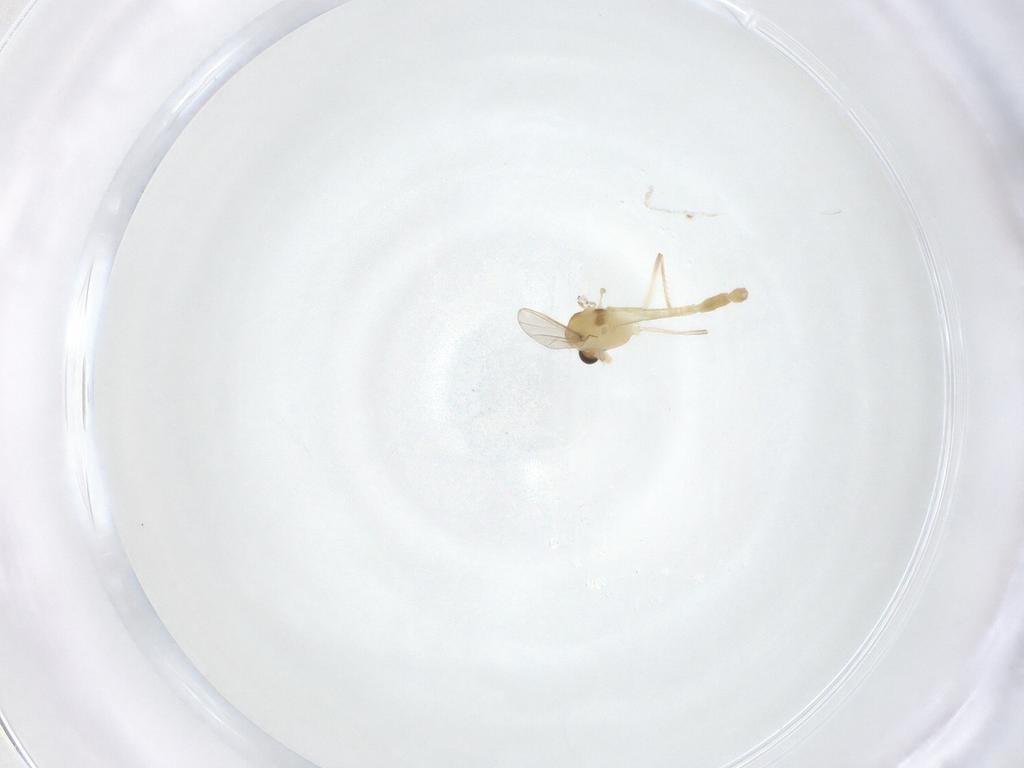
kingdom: Animalia
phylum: Arthropoda
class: Insecta
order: Diptera
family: Chironomidae
